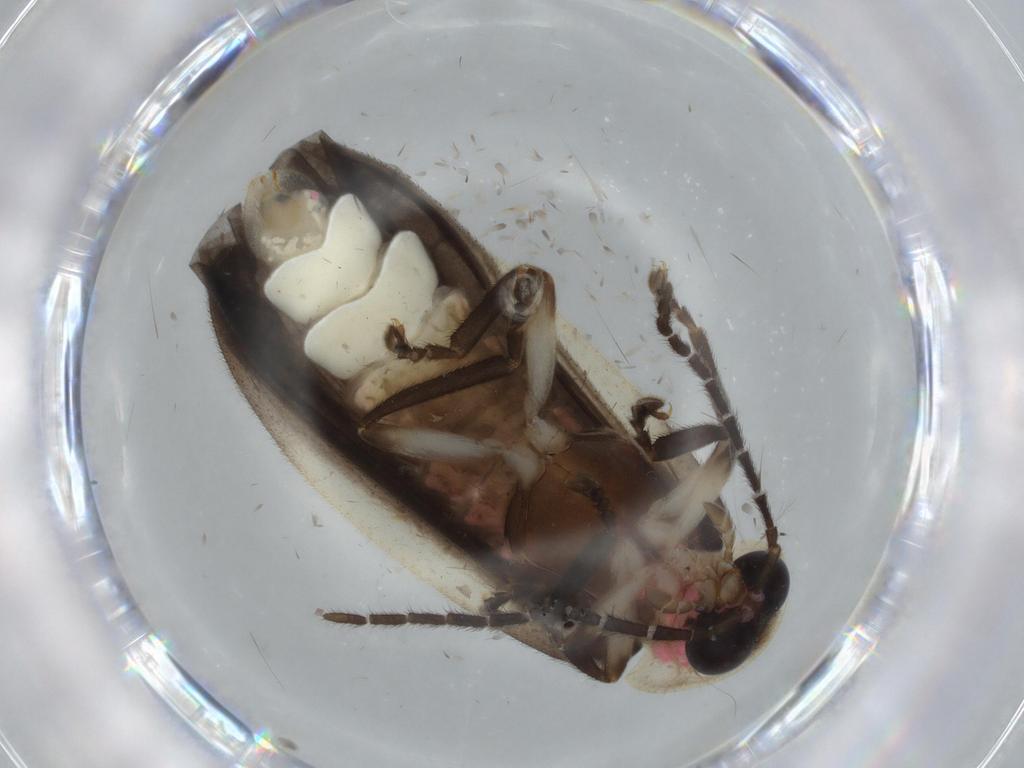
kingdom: Animalia
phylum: Arthropoda
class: Insecta
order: Coleoptera
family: Lampyridae
